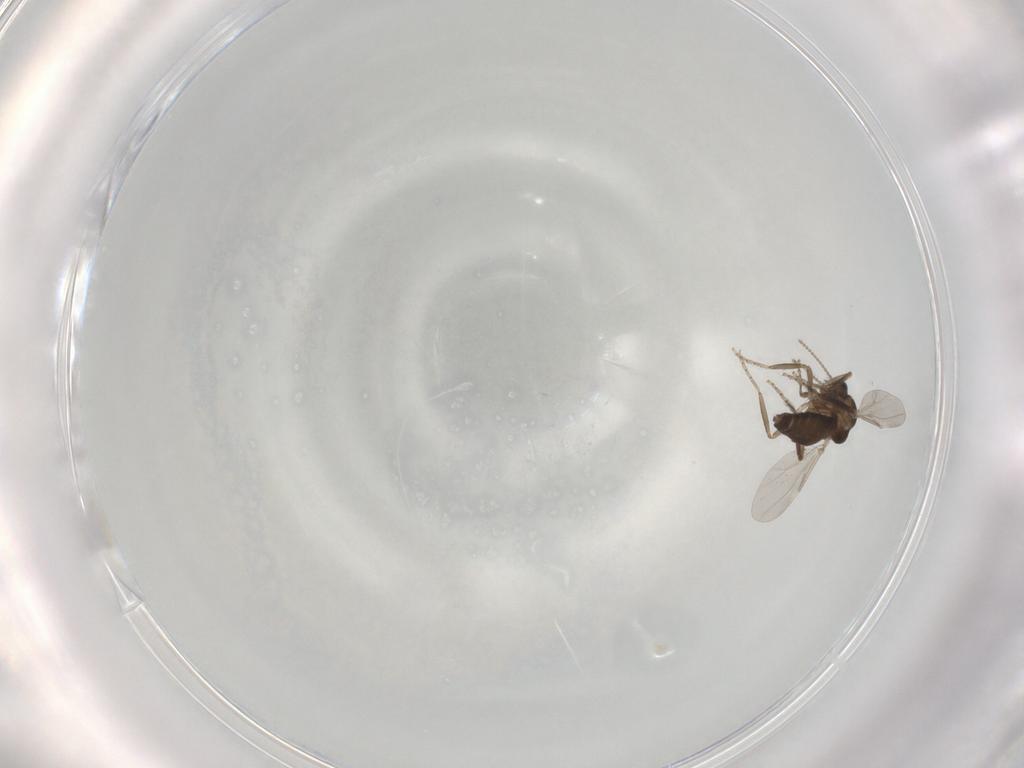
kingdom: Animalia
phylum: Arthropoda
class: Insecta
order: Diptera
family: Ceratopogonidae
